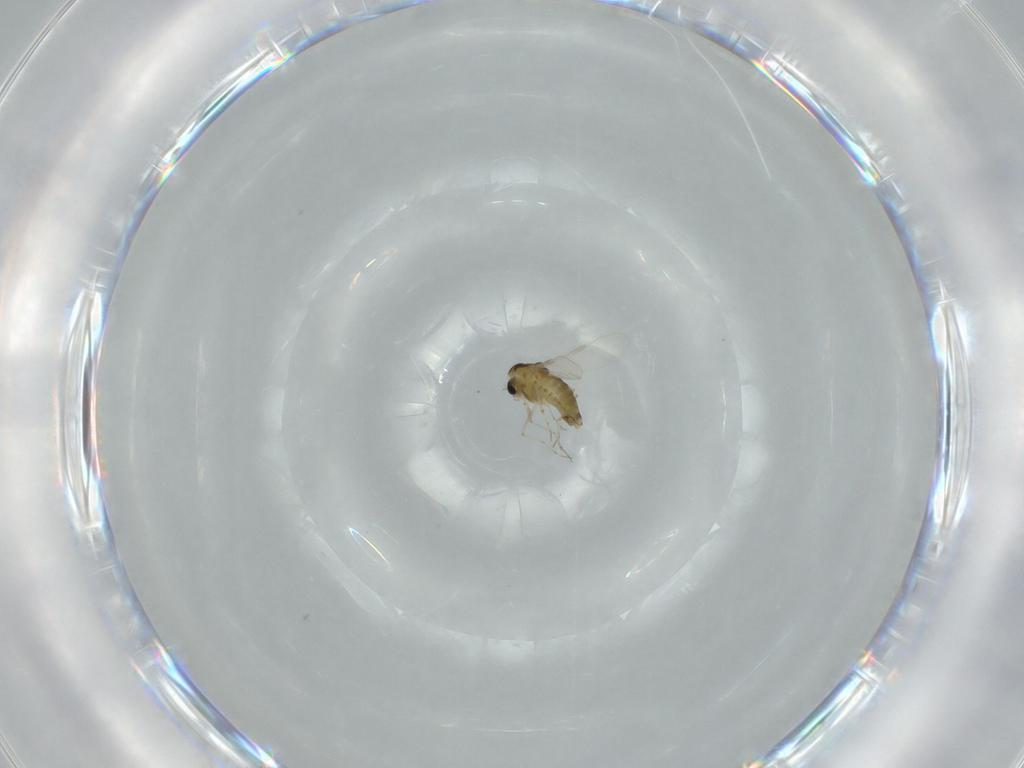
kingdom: Animalia
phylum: Arthropoda
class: Insecta
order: Diptera
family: Chironomidae
